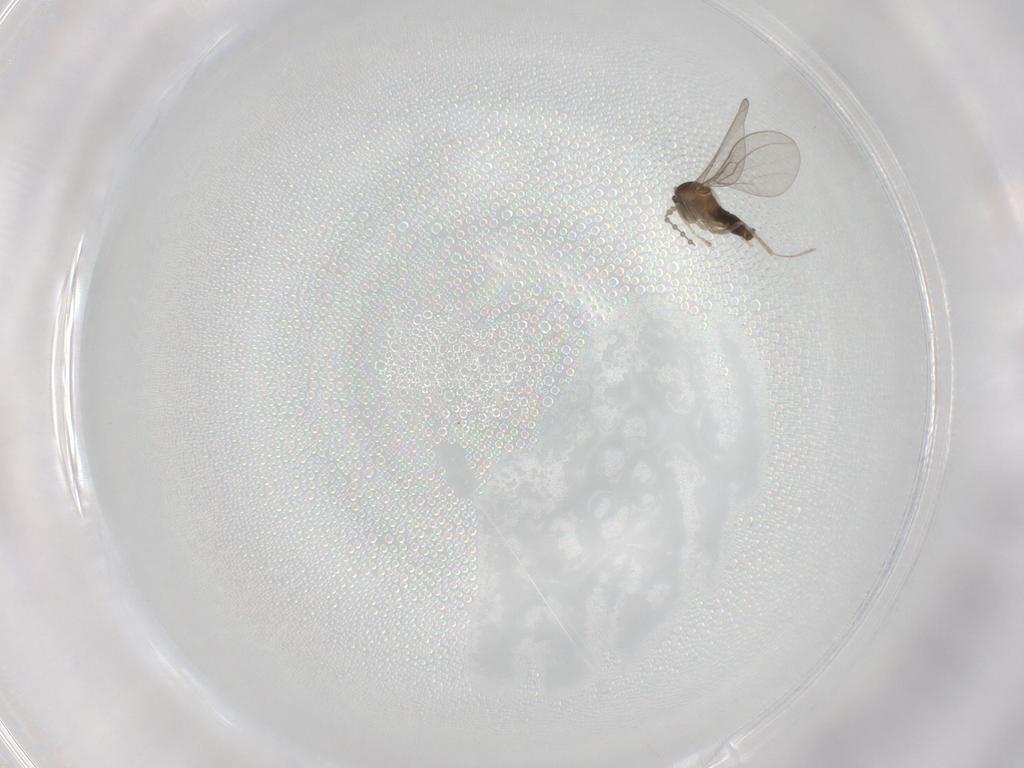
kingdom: Animalia
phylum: Arthropoda
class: Insecta
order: Diptera
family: Cecidomyiidae
